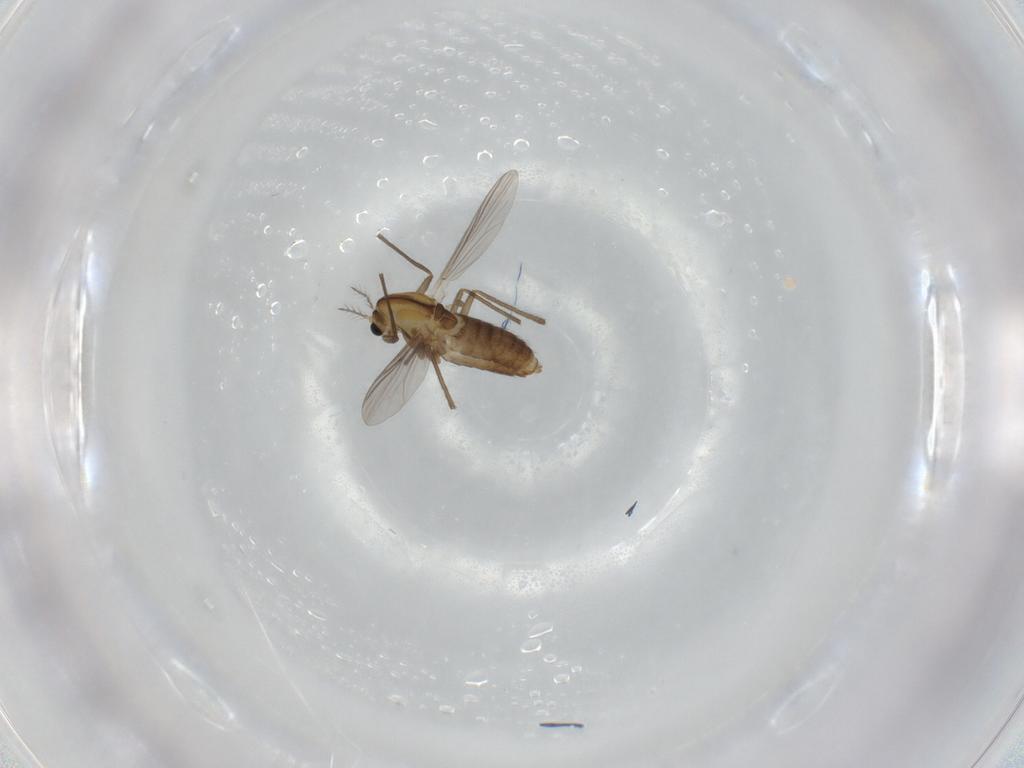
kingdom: Animalia
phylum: Arthropoda
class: Insecta
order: Diptera
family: Chironomidae
